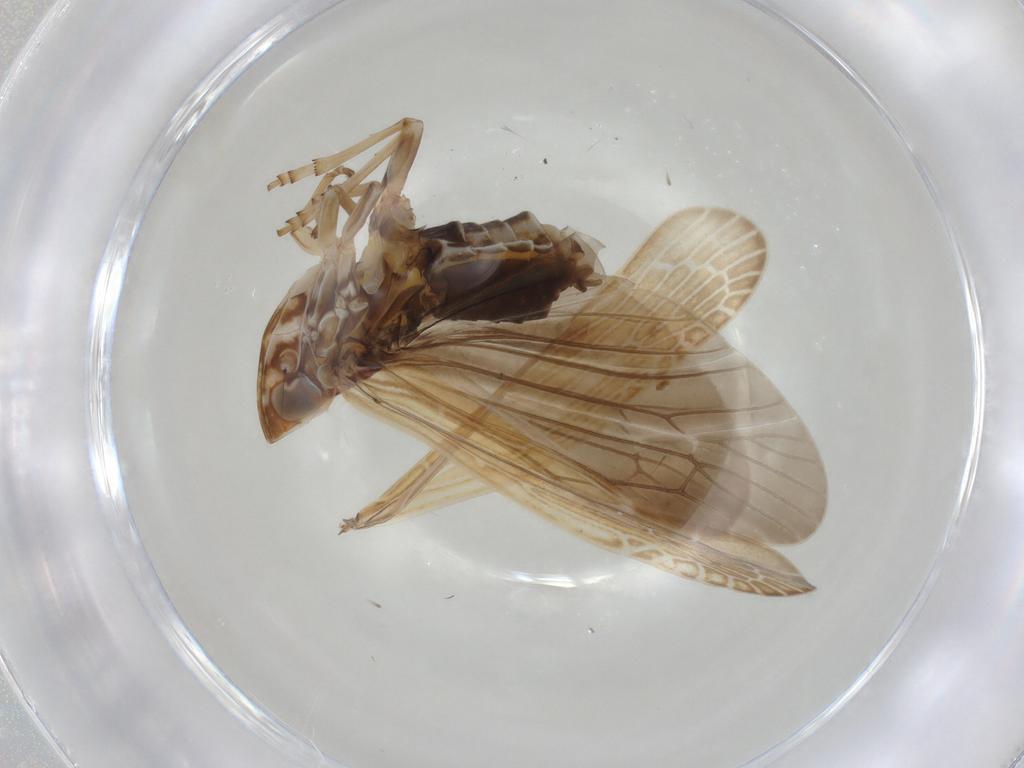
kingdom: Animalia
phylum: Arthropoda
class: Insecta
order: Hemiptera
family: Achilidae
